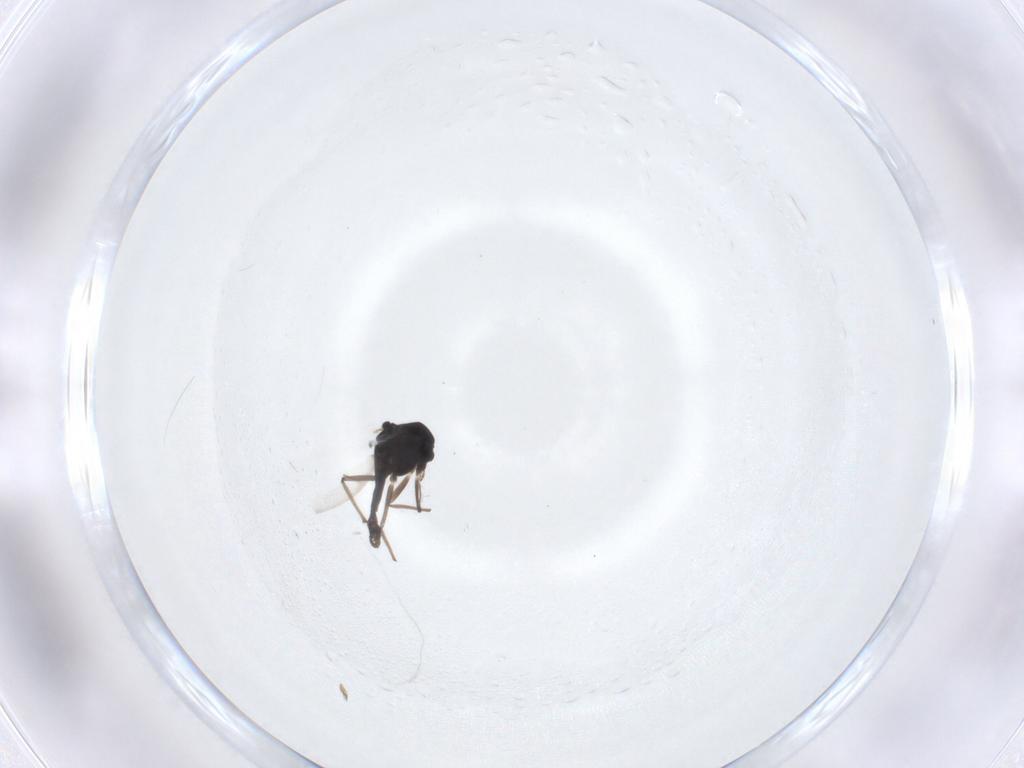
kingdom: Animalia
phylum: Arthropoda
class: Insecta
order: Diptera
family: Chironomidae
